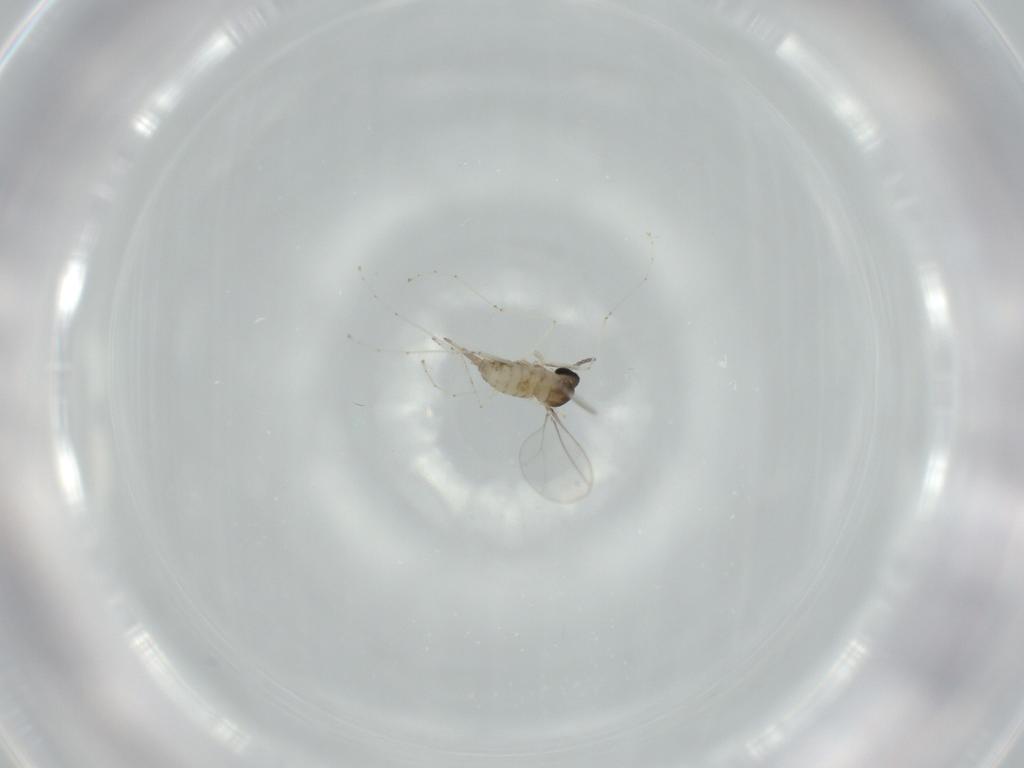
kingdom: Animalia
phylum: Arthropoda
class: Insecta
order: Diptera
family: Cecidomyiidae
